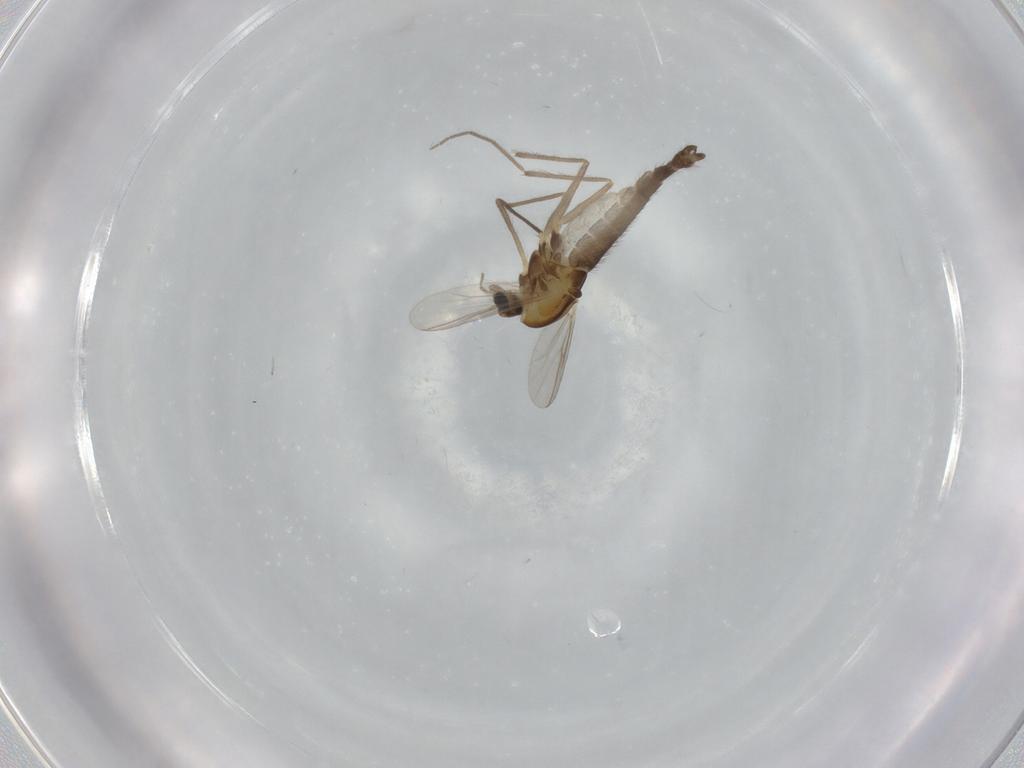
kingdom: Animalia
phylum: Arthropoda
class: Insecta
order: Diptera
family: Chironomidae
